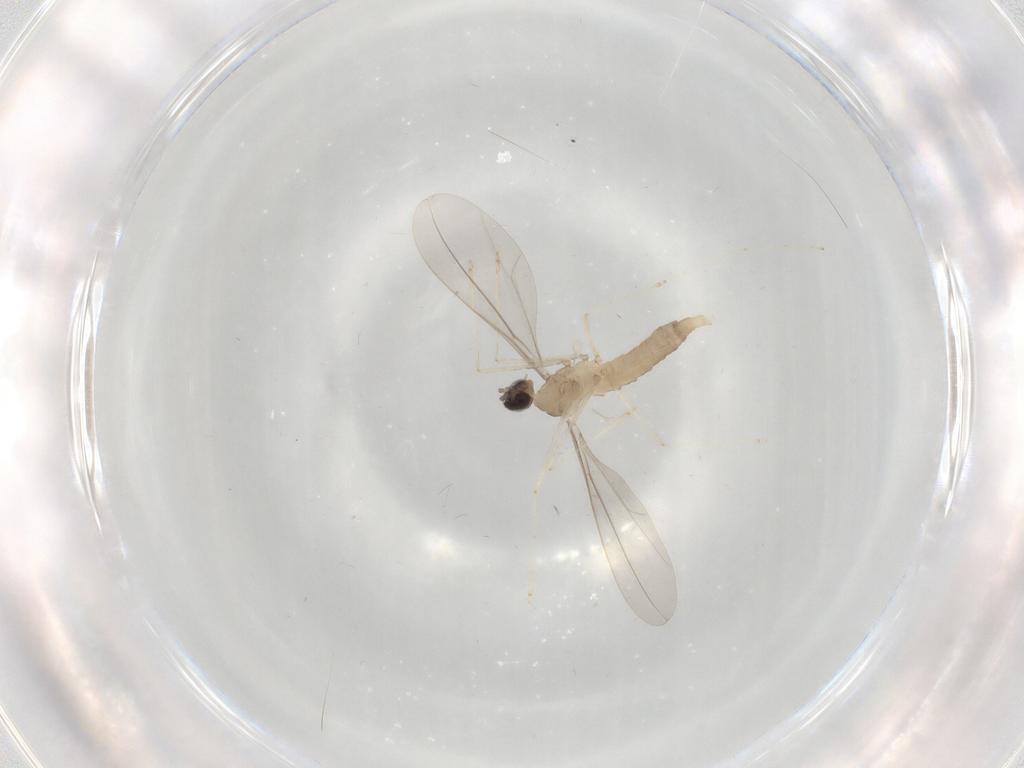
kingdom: Animalia
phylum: Arthropoda
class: Insecta
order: Diptera
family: Cecidomyiidae
